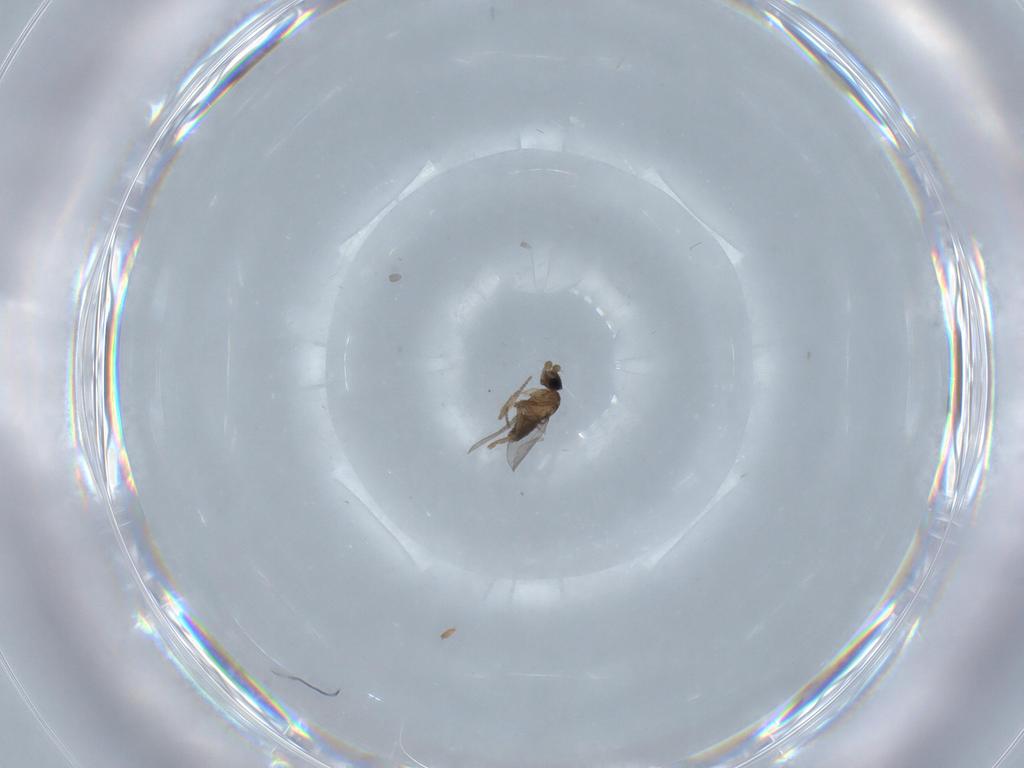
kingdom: Animalia
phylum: Arthropoda
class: Insecta
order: Diptera
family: Phoridae
